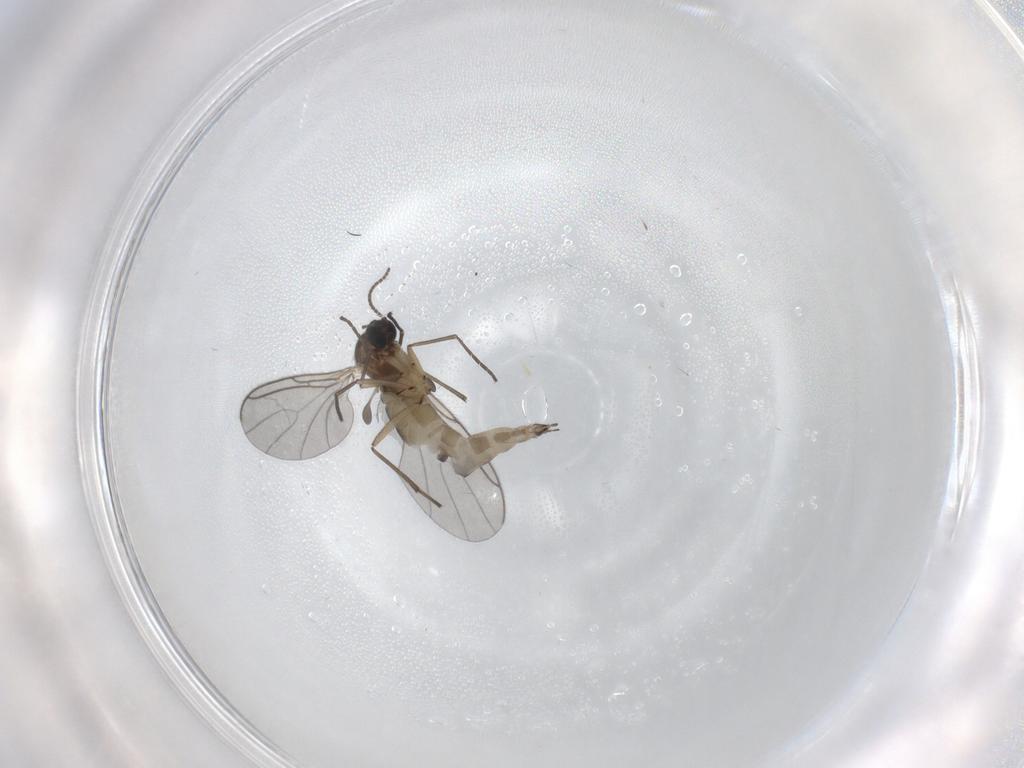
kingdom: Animalia
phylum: Arthropoda
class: Insecta
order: Diptera
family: Sciaridae
